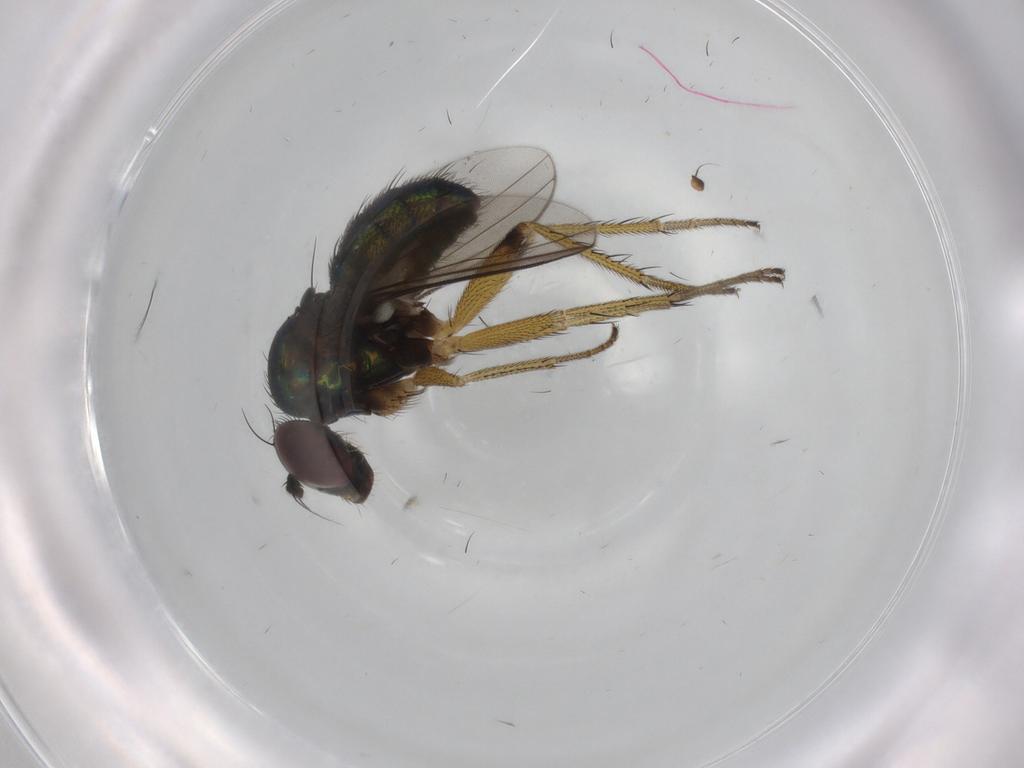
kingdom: Animalia
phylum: Arthropoda
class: Insecta
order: Diptera
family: Dolichopodidae
